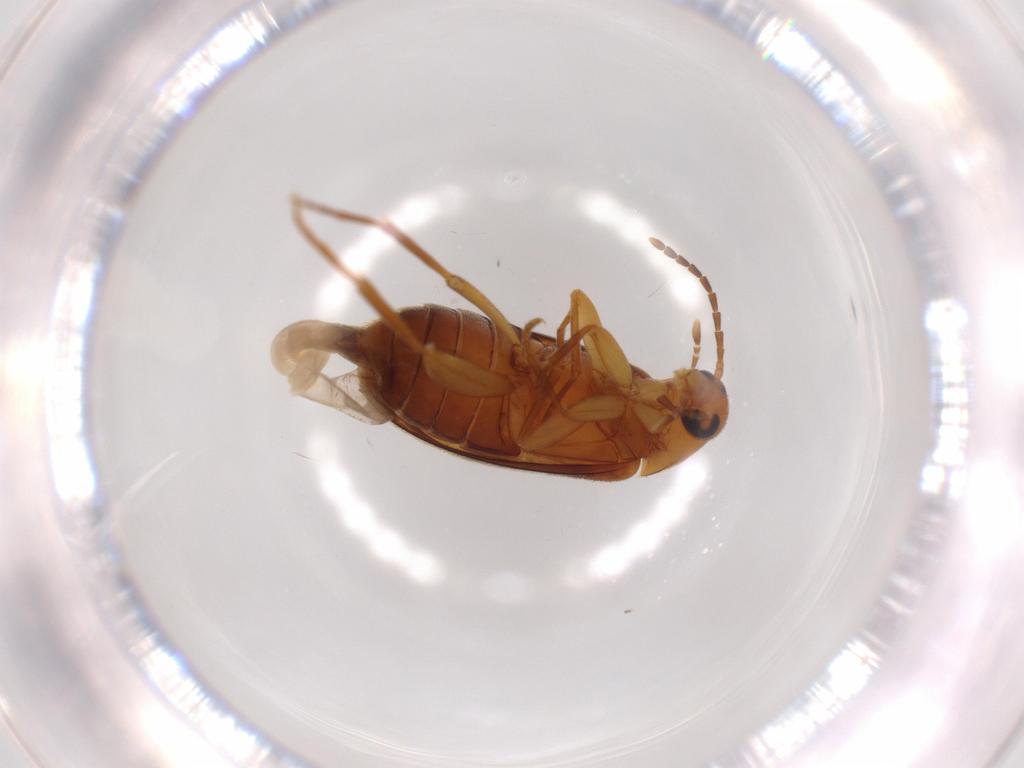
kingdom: Animalia
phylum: Arthropoda
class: Insecta
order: Coleoptera
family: Scraptiidae
